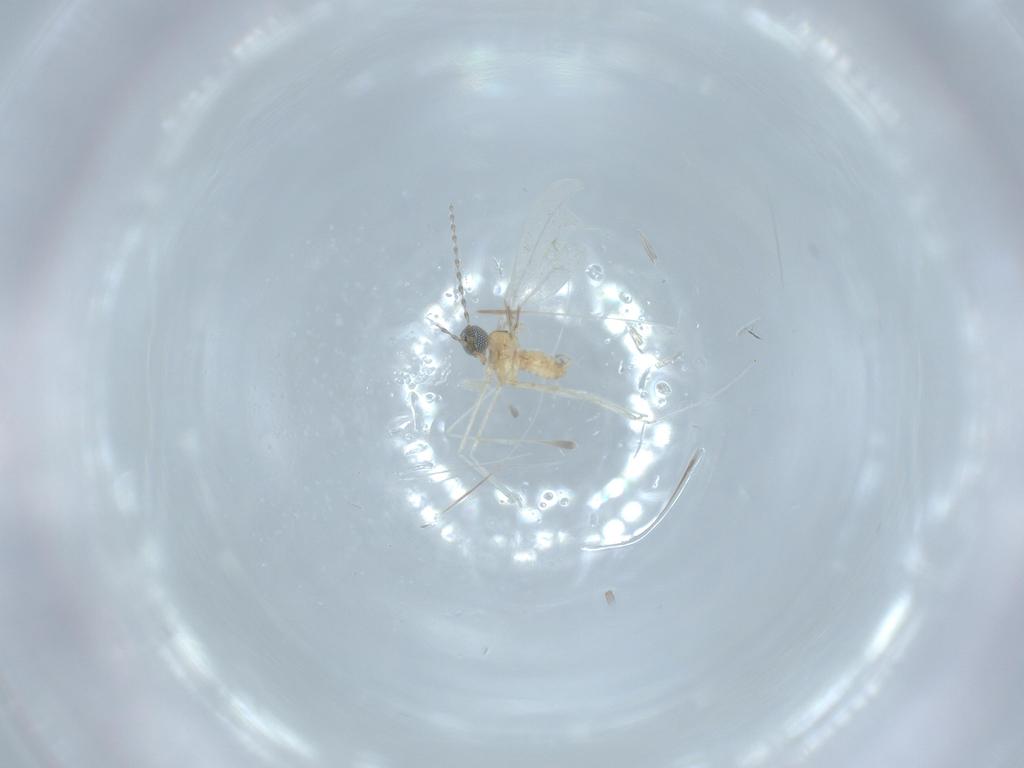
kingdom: Animalia
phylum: Arthropoda
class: Insecta
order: Diptera
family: Cecidomyiidae
